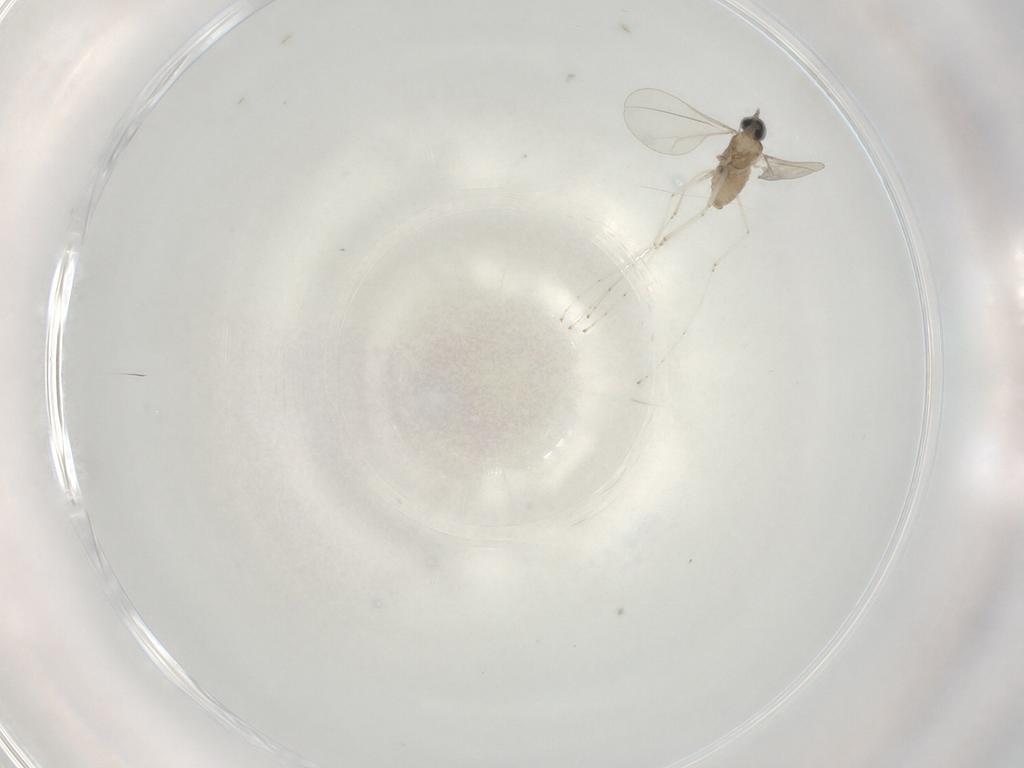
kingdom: Animalia
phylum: Arthropoda
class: Insecta
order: Diptera
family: Cecidomyiidae
